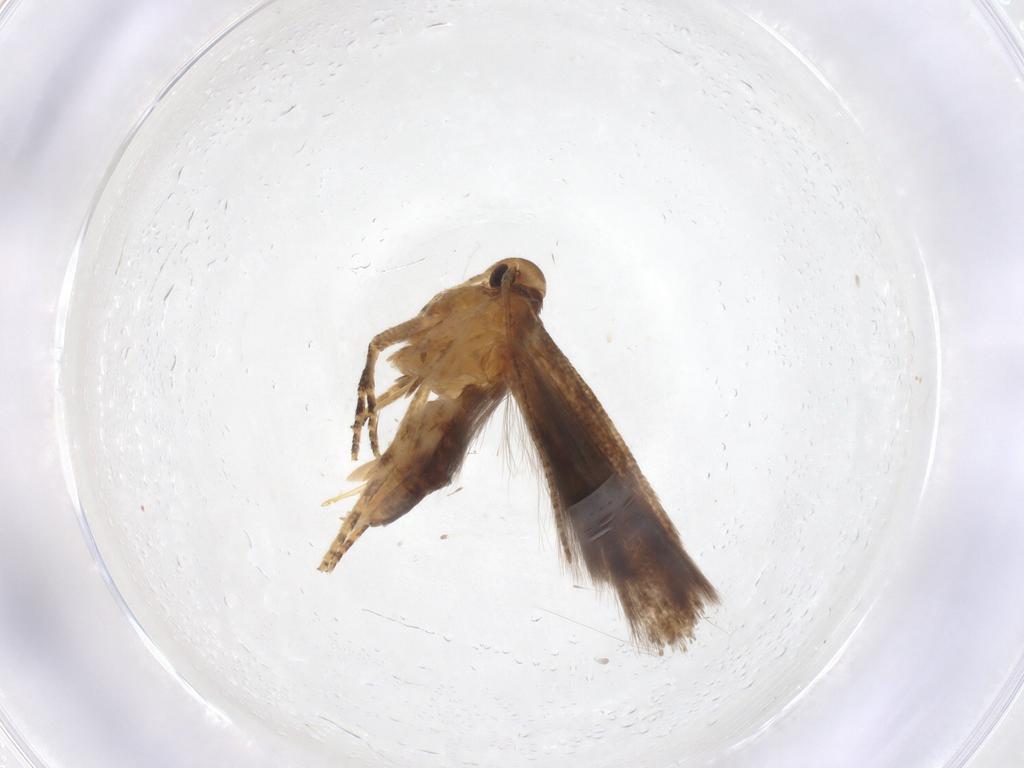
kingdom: Animalia
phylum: Arthropoda
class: Insecta
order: Lepidoptera
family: Gelechiidae
